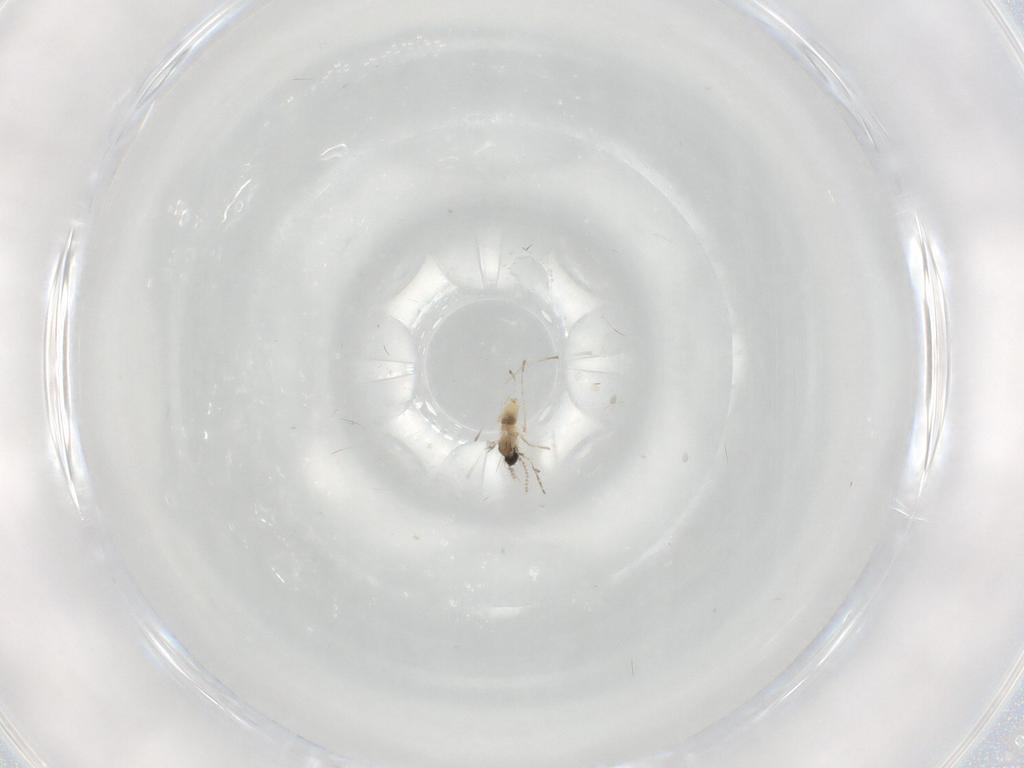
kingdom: Animalia
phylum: Arthropoda
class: Insecta
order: Diptera
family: Cecidomyiidae
